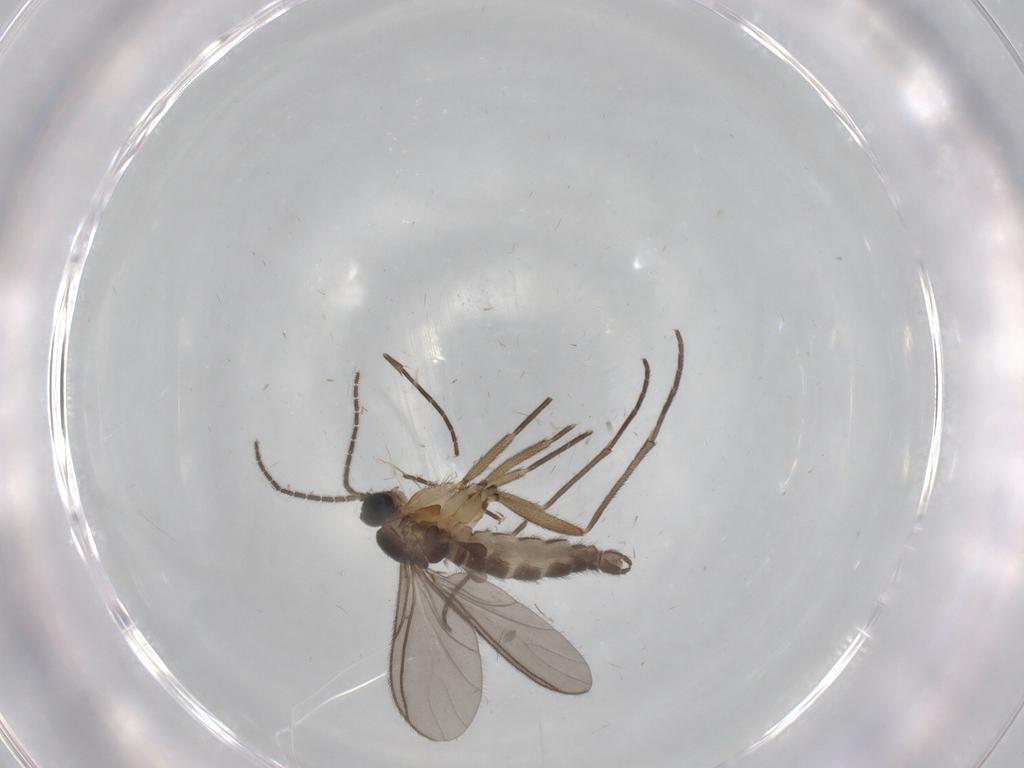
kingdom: Animalia
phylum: Arthropoda
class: Insecta
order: Diptera
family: Sciaridae
